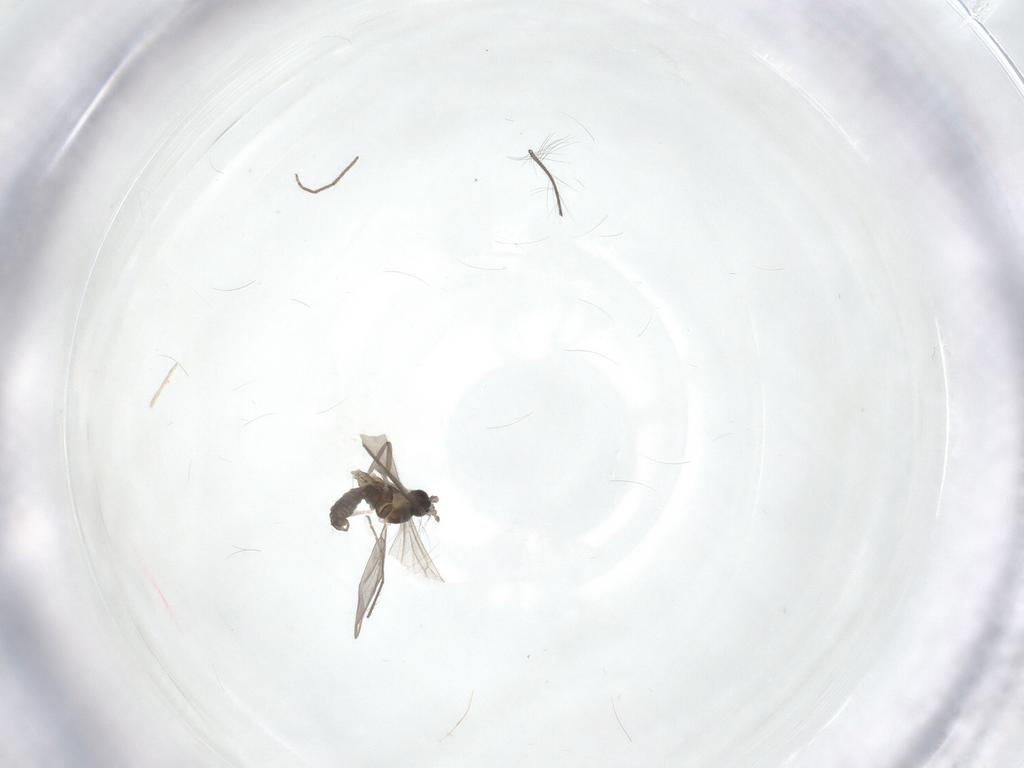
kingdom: Animalia
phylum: Arthropoda
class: Insecta
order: Diptera
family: Cecidomyiidae
